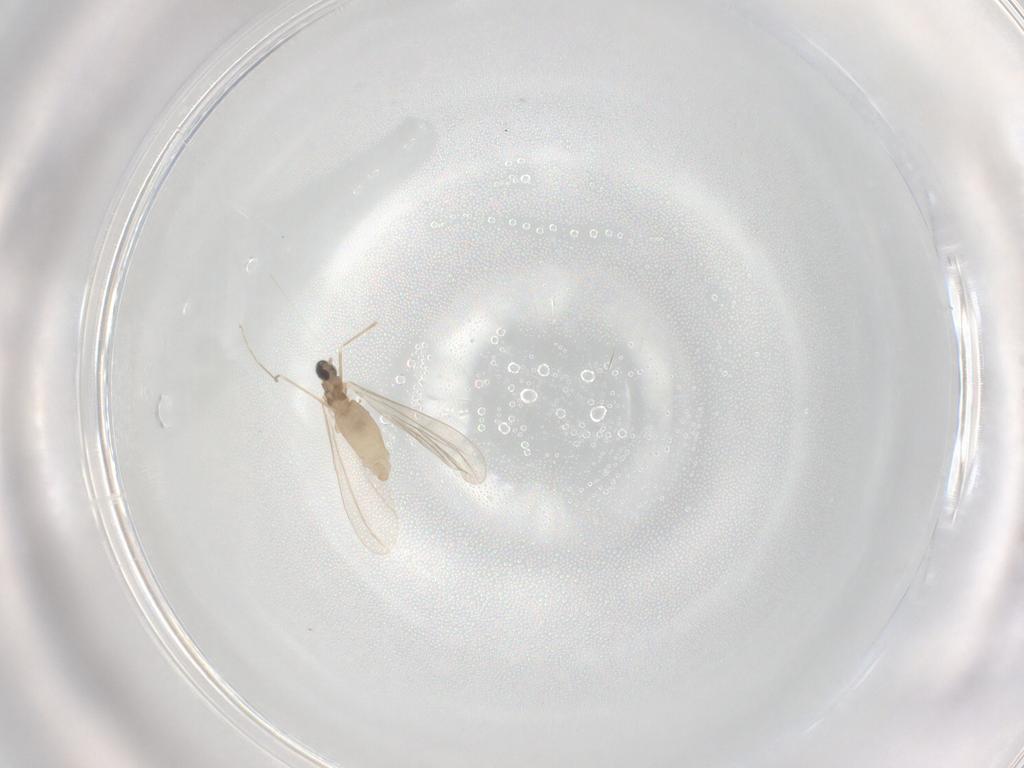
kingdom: Animalia
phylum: Arthropoda
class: Insecta
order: Diptera
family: Cecidomyiidae
